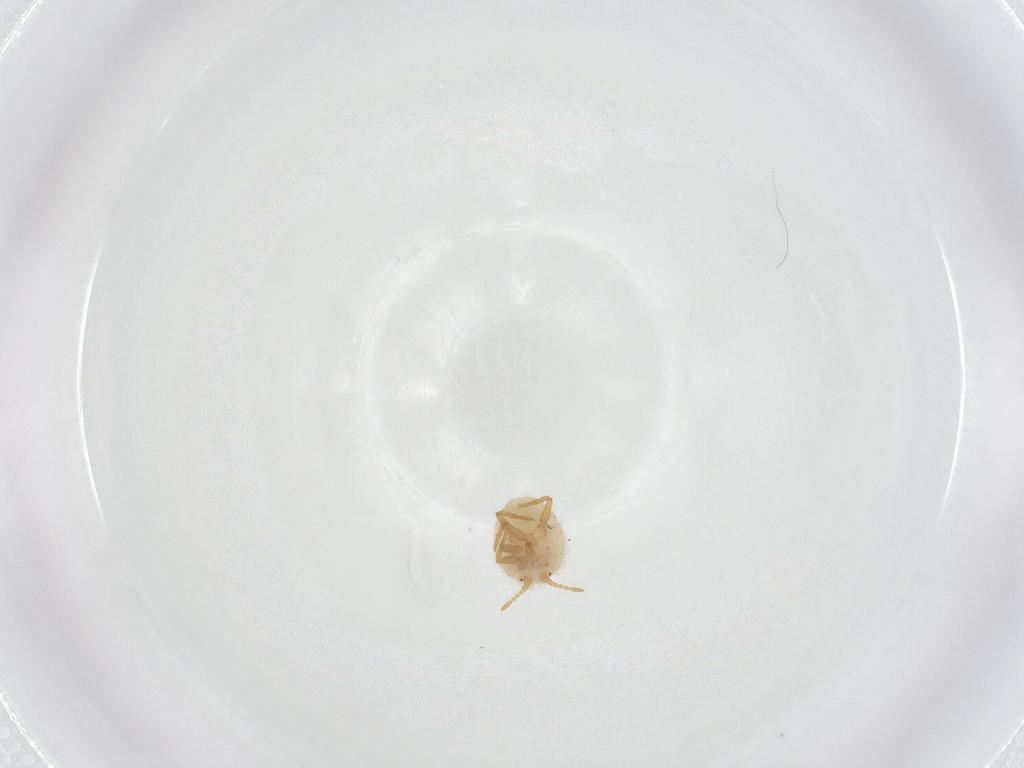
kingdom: Animalia
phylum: Arthropoda
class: Insecta
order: Hemiptera
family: Ortheziidae
